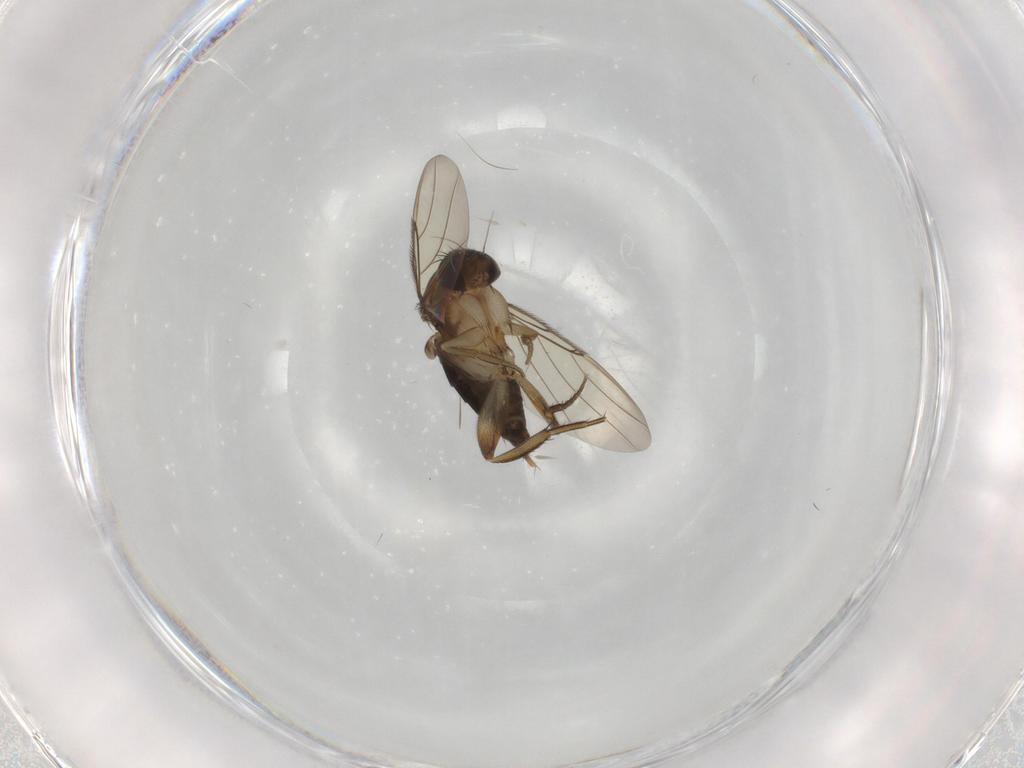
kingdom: Animalia
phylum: Arthropoda
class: Insecta
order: Diptera
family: Phoridae
